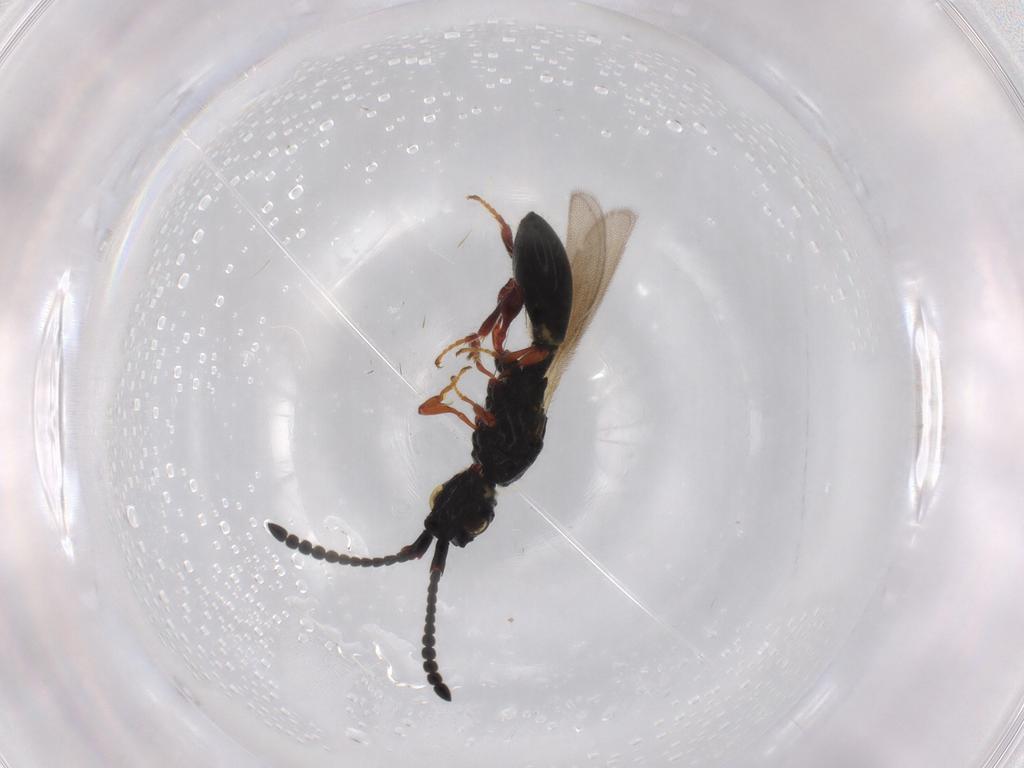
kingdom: Animalia
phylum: Arthropoda
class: Insecta
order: Hymenoptera
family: Diapriidae
